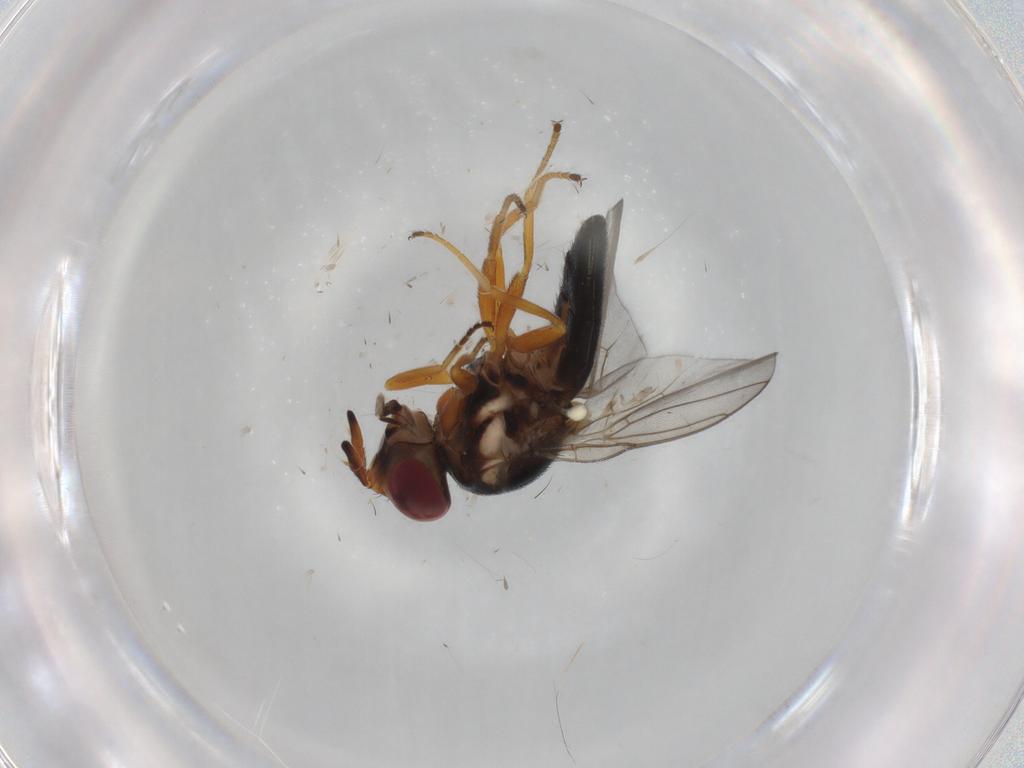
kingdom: Animalia
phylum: Arthropoda
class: Insecta
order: Diptera
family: Chloropidae
